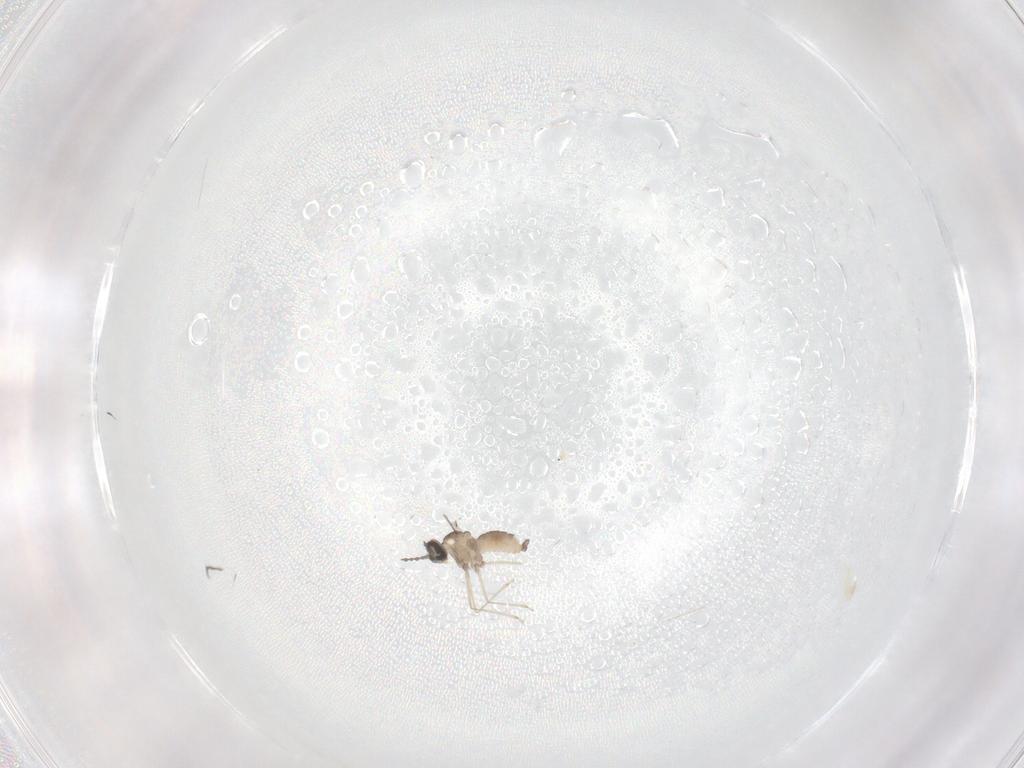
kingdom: Animalia
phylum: Arthropoda
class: Insecta
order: Diptera
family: Cecidomyiidae
